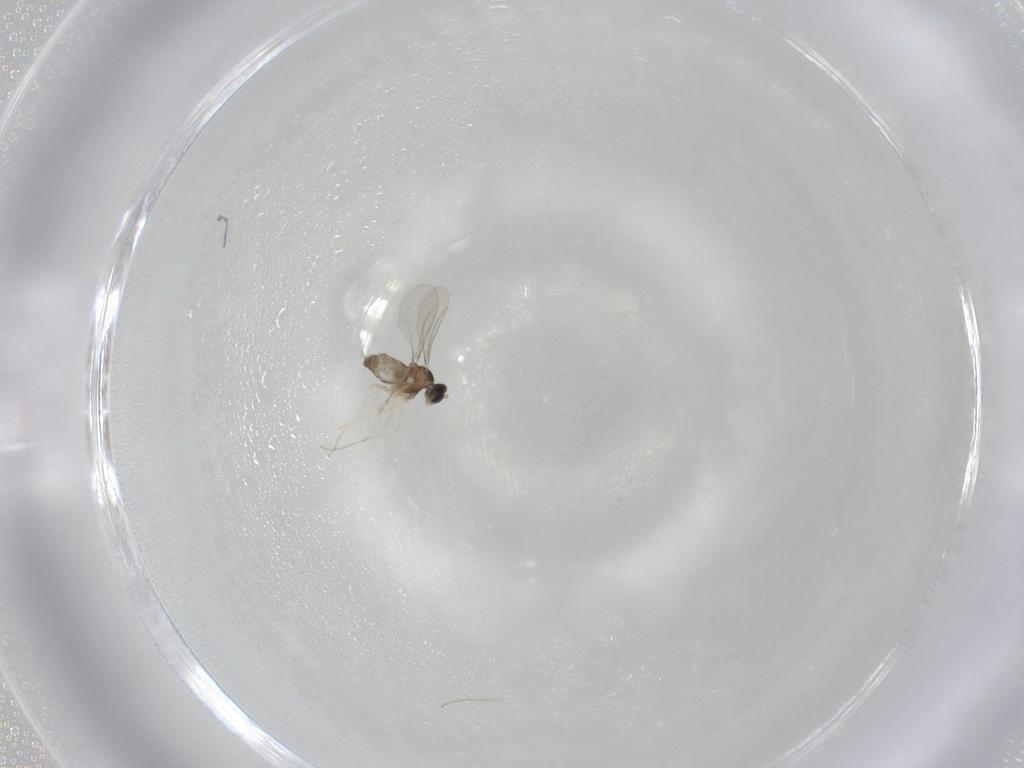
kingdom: Animalia
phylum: Arthropoda
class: Insecta
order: Diptera
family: Cecidomyiidae
